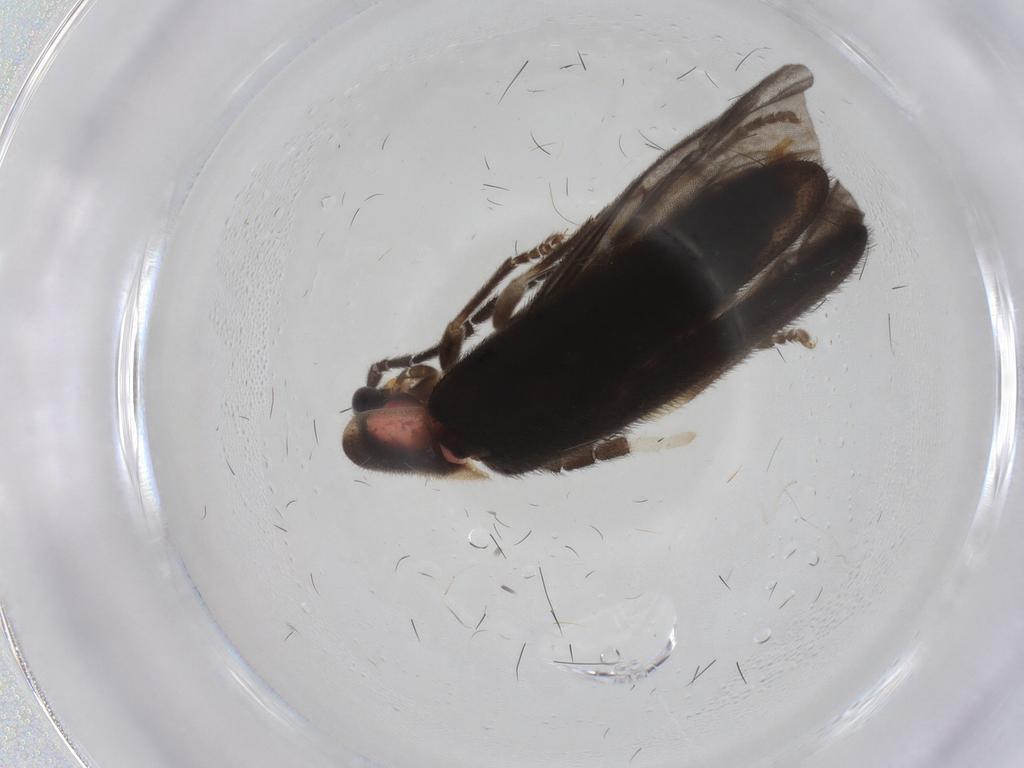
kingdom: Animalia
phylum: Arthropoda
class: Insecta
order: Coleoptera
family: Lampyridae
